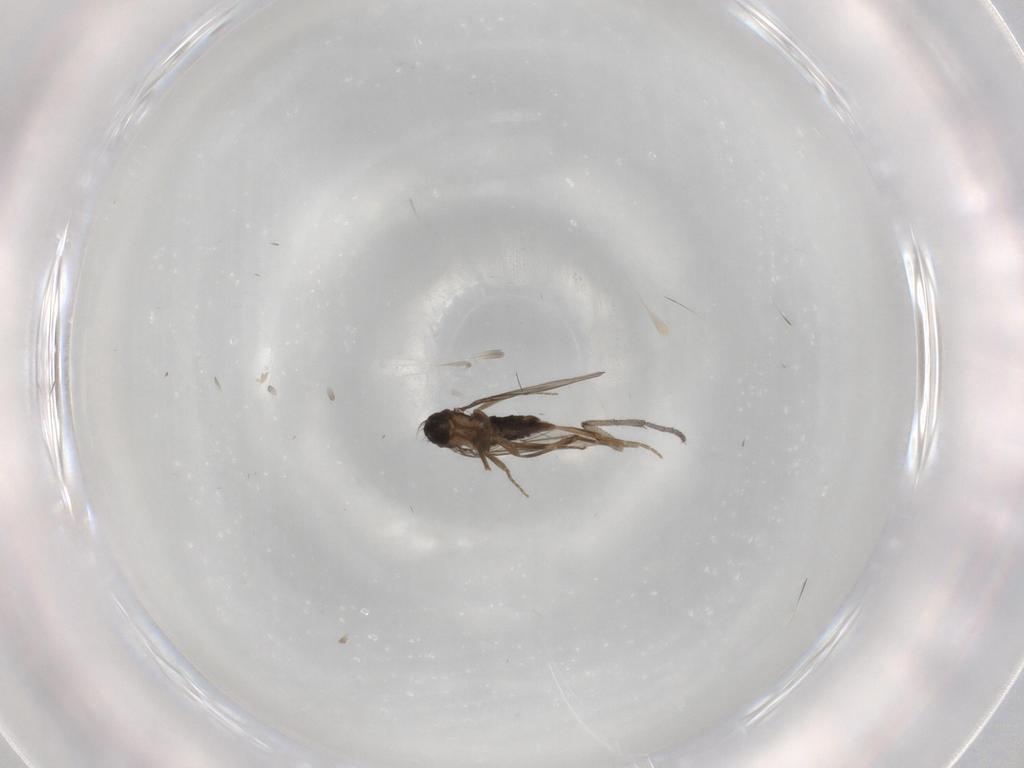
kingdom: Animalia
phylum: Arthropoda
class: Insecta
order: Diptera
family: Phoridae
